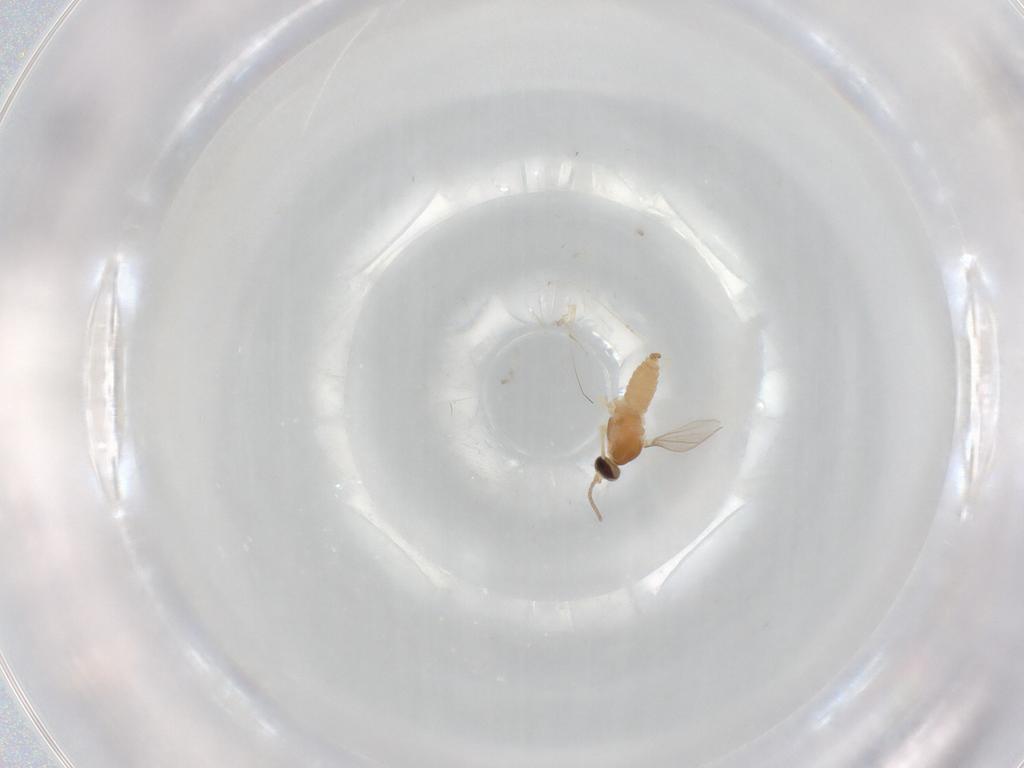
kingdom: Animalia
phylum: Arthropoda
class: Insecta
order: Diptera
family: Cecidomyiidae
